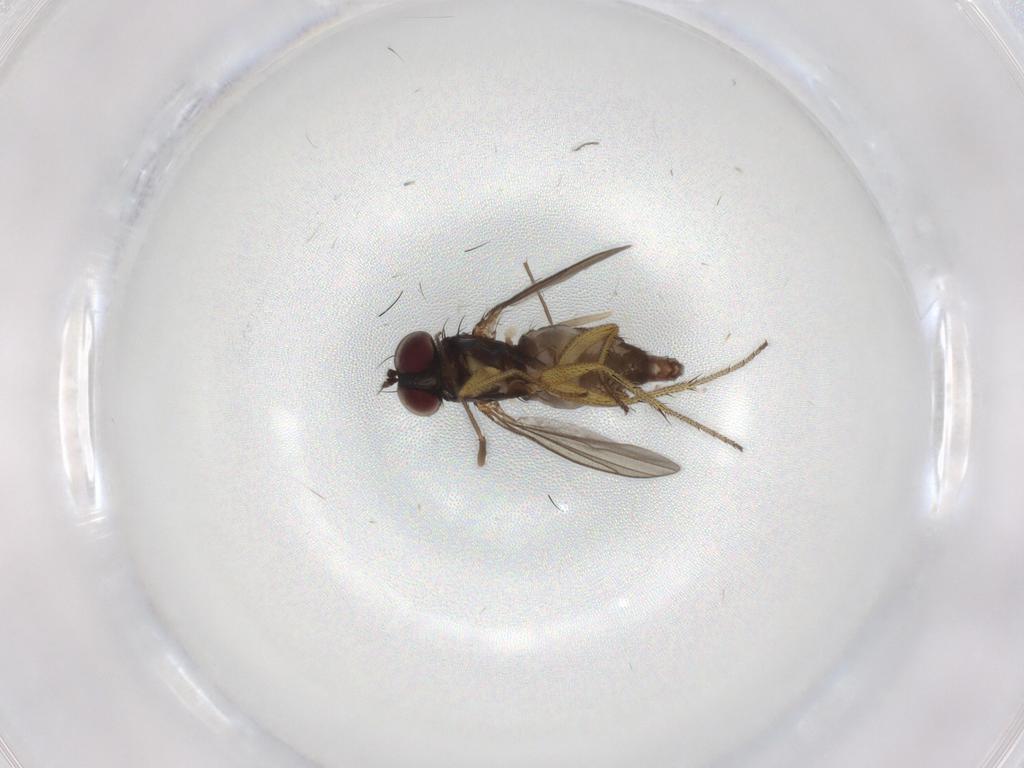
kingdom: Animalia
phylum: Arthropoda
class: Insecta
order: Diptera
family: Dolichopodidae
